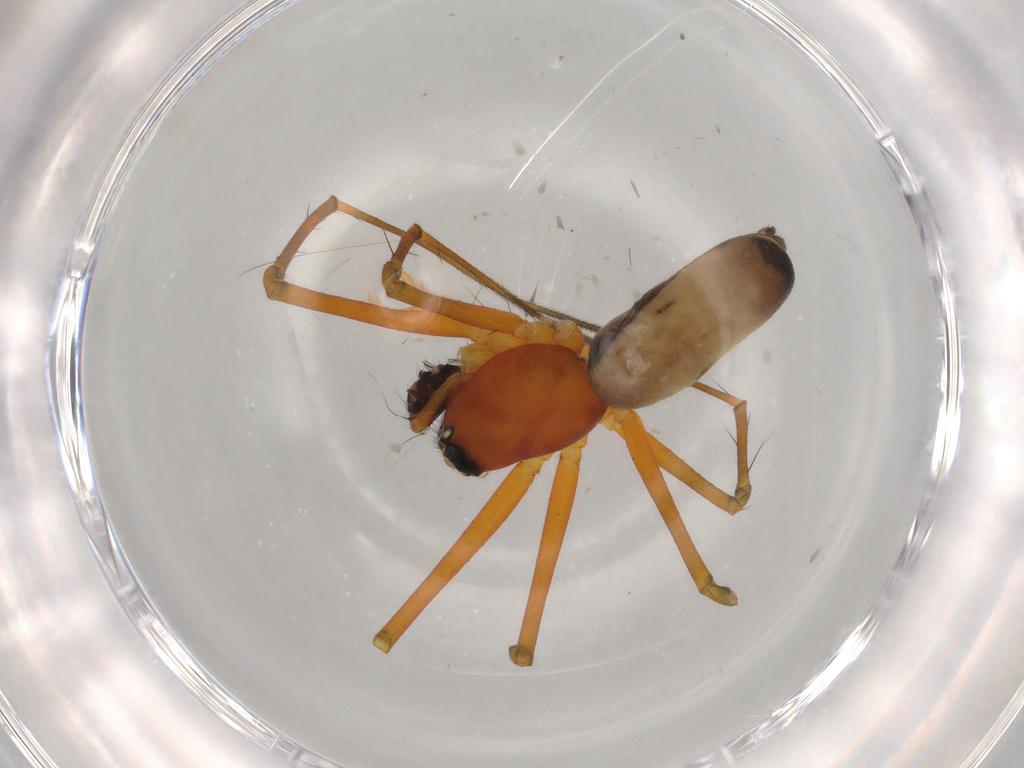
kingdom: Animalia
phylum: Arthropoda
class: Arachnida
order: Araneae
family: Linyphiidae
